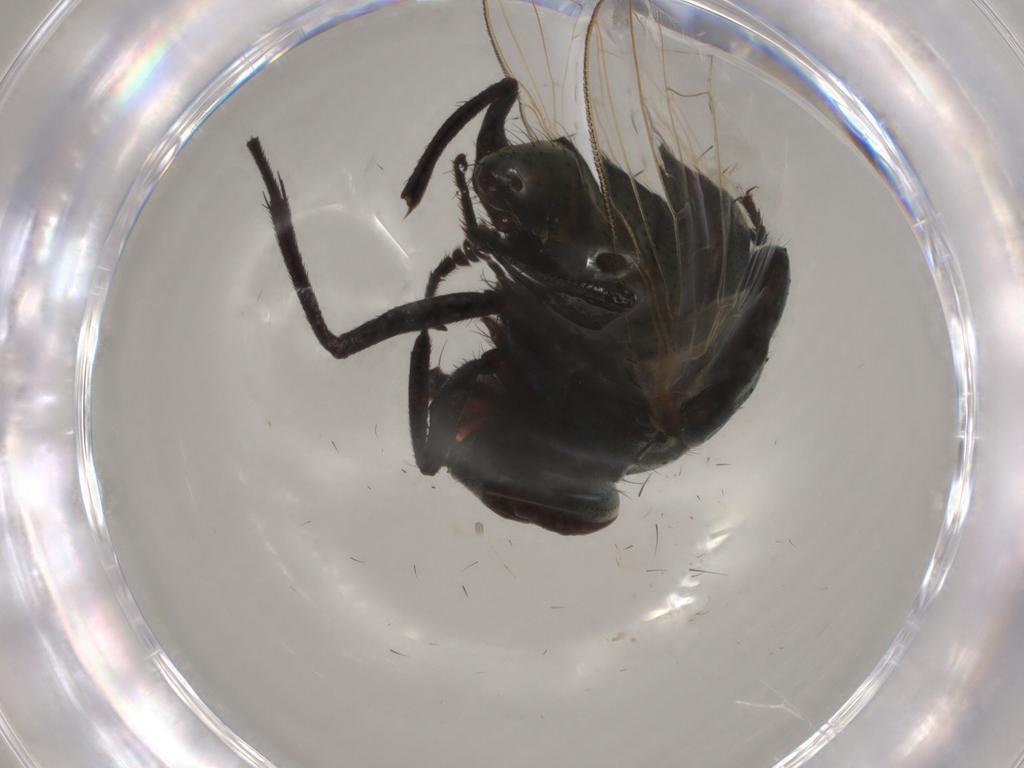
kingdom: Animalia
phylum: Arthropoda
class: Insecta
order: Diptera
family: Muscidae
